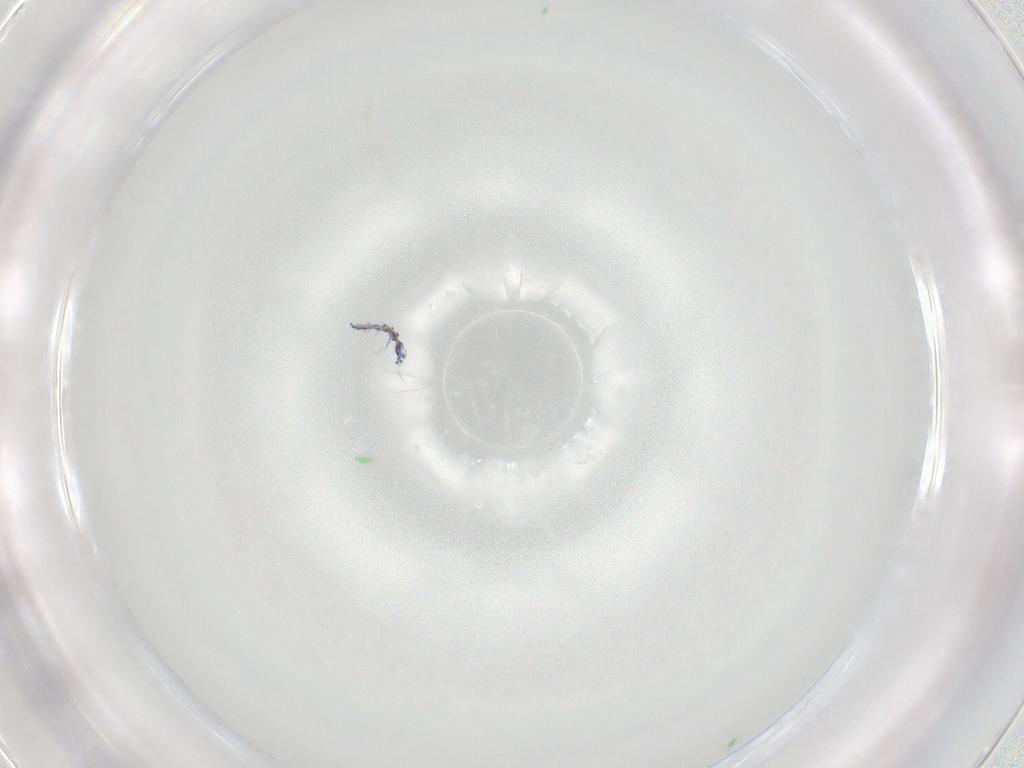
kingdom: Animalia
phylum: Arthropoda
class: Collembola
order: Entomobryomorpha
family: Entomobryidae
